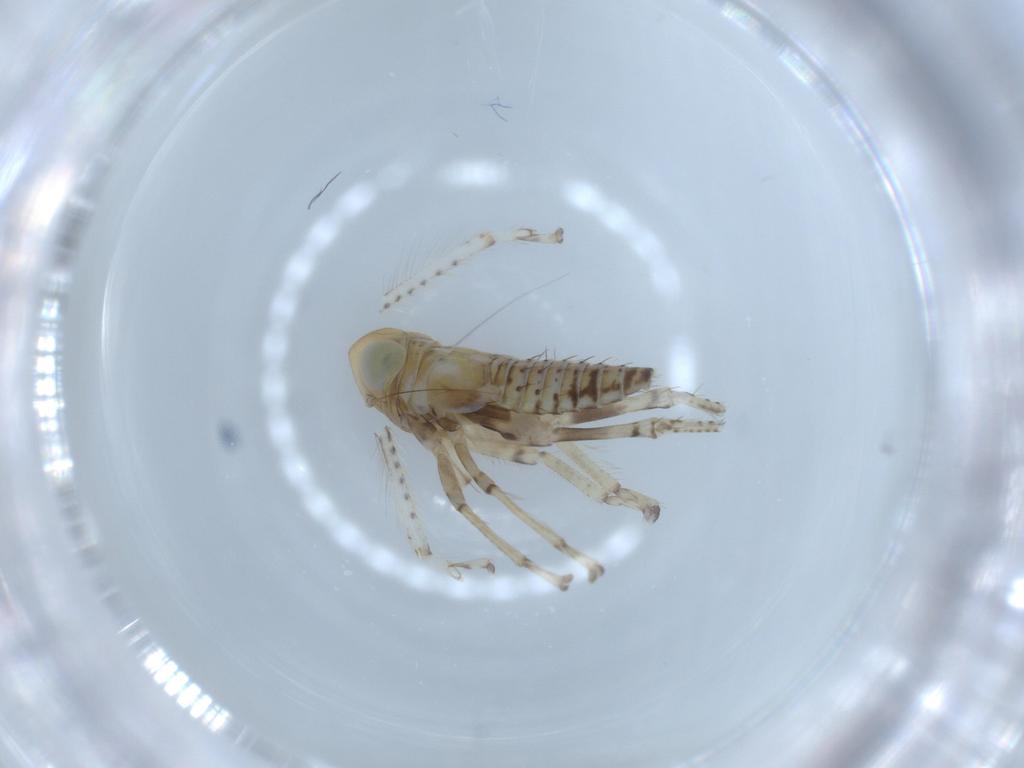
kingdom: Animalia
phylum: Arthropoda
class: Insecta
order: Hemiptera
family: Cicadellidae
